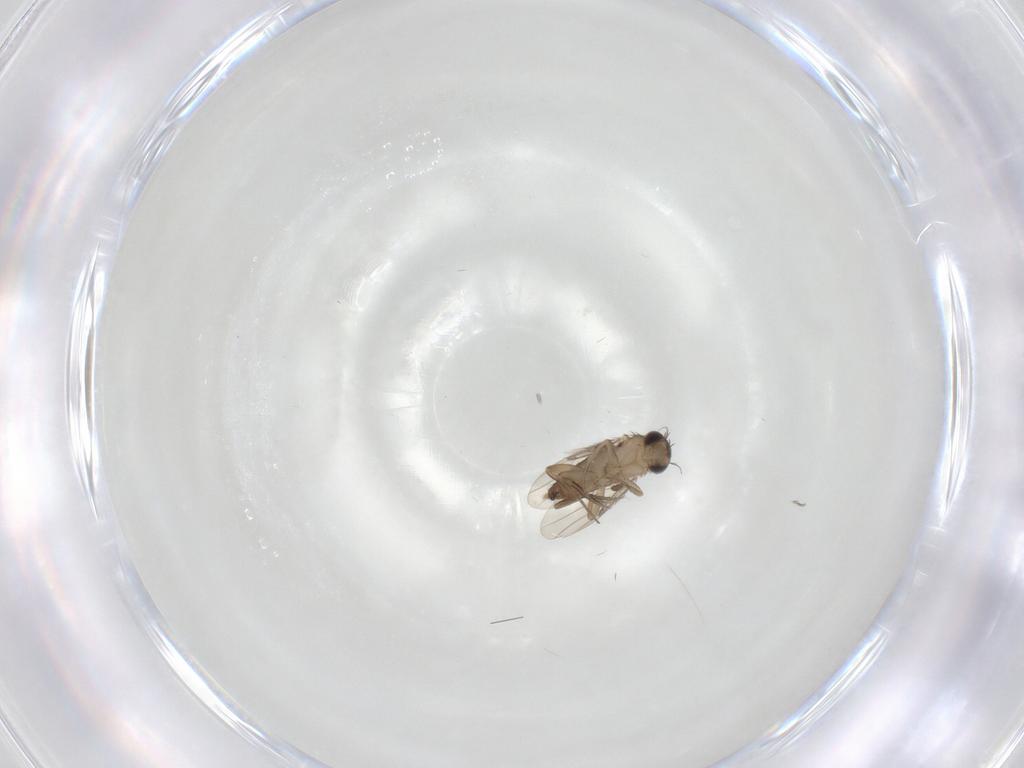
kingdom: Animalia
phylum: Arthropoda
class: Insecta
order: Diptera
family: Phoridae
